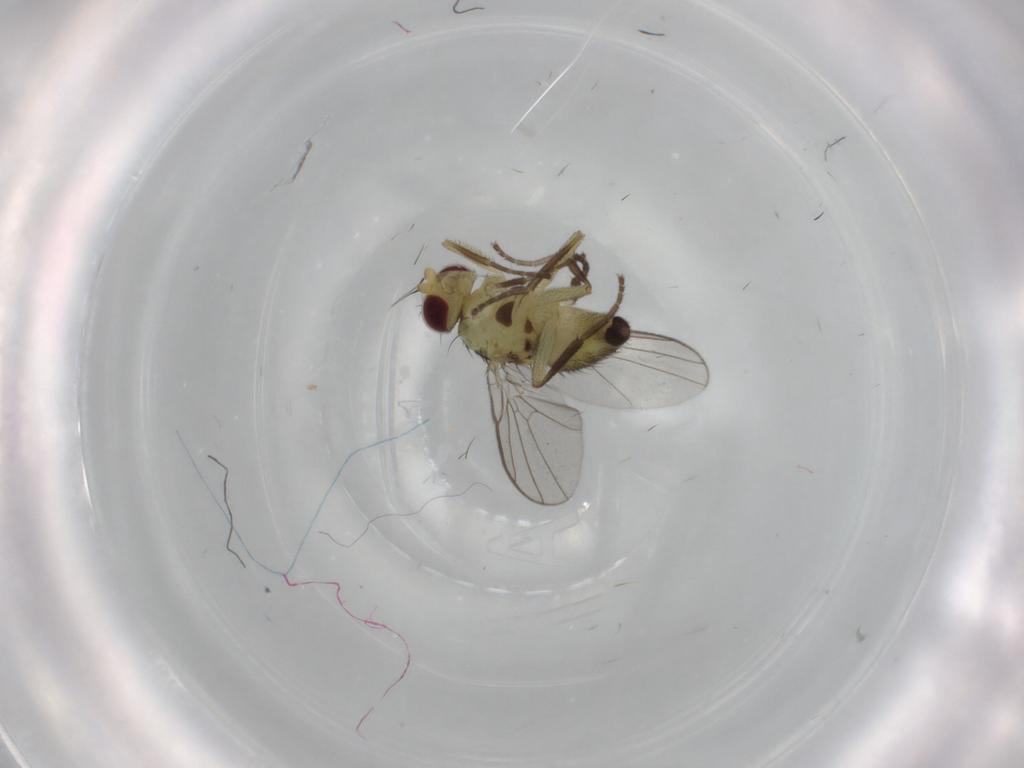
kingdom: Animalia
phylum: Arthropoda
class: Insecta
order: Diptera
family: Agromyzidae
